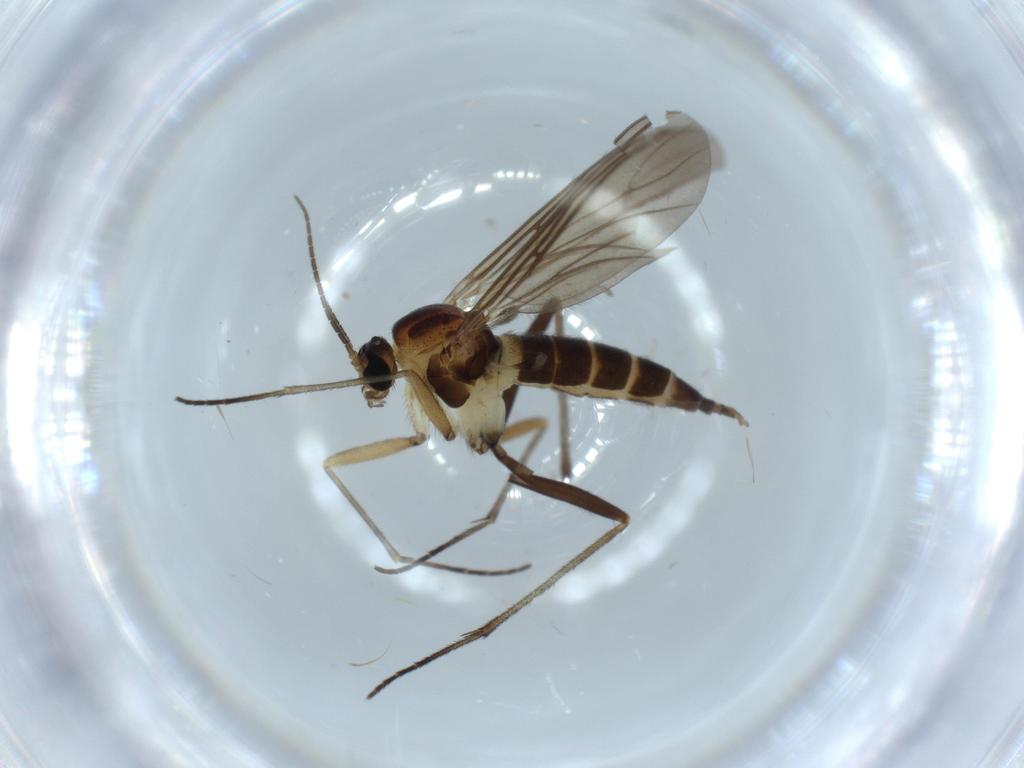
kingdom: Animalia
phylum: Arthropoda
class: Insecta
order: Diptera
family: Sciaridae
